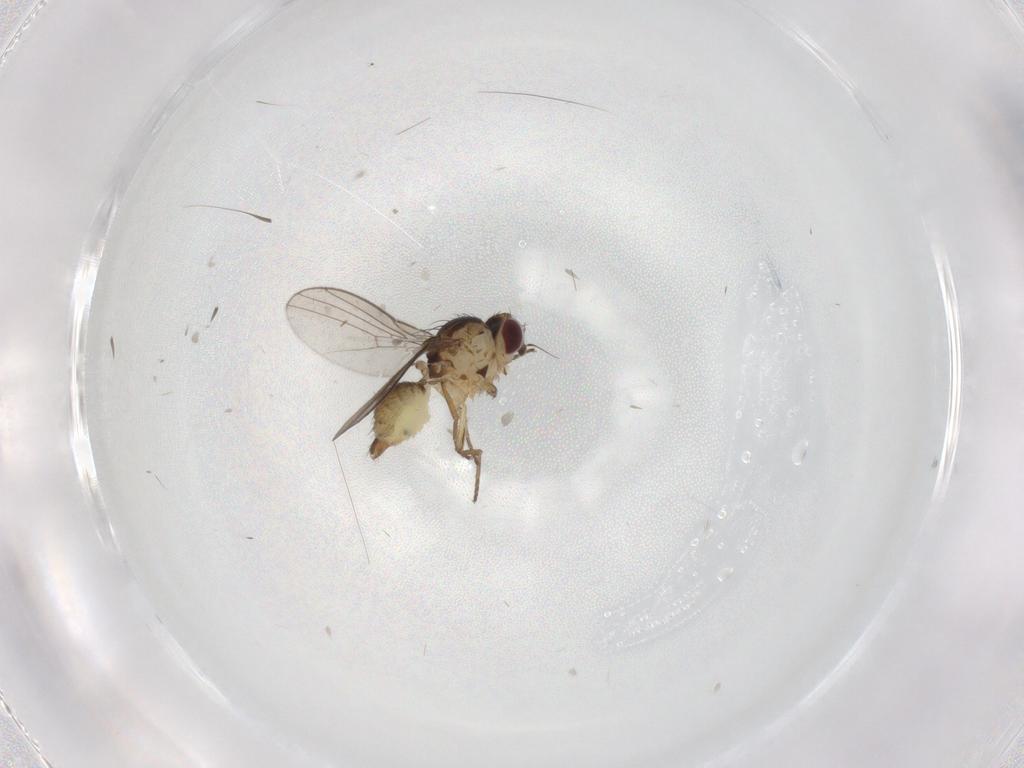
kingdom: Animalia
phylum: Arthropoda
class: Insecta
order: Diptera
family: Agromyzidae
